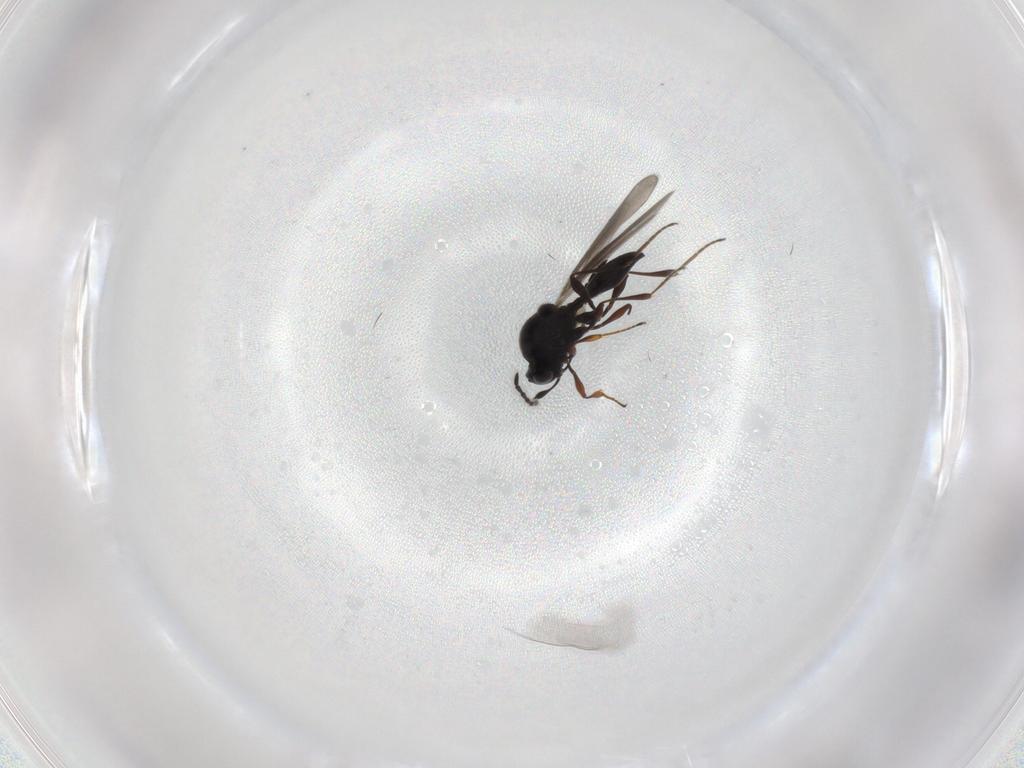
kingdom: Animalia
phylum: Arthropoda
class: Insecta
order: Hymenoptera
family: Platygastridae
